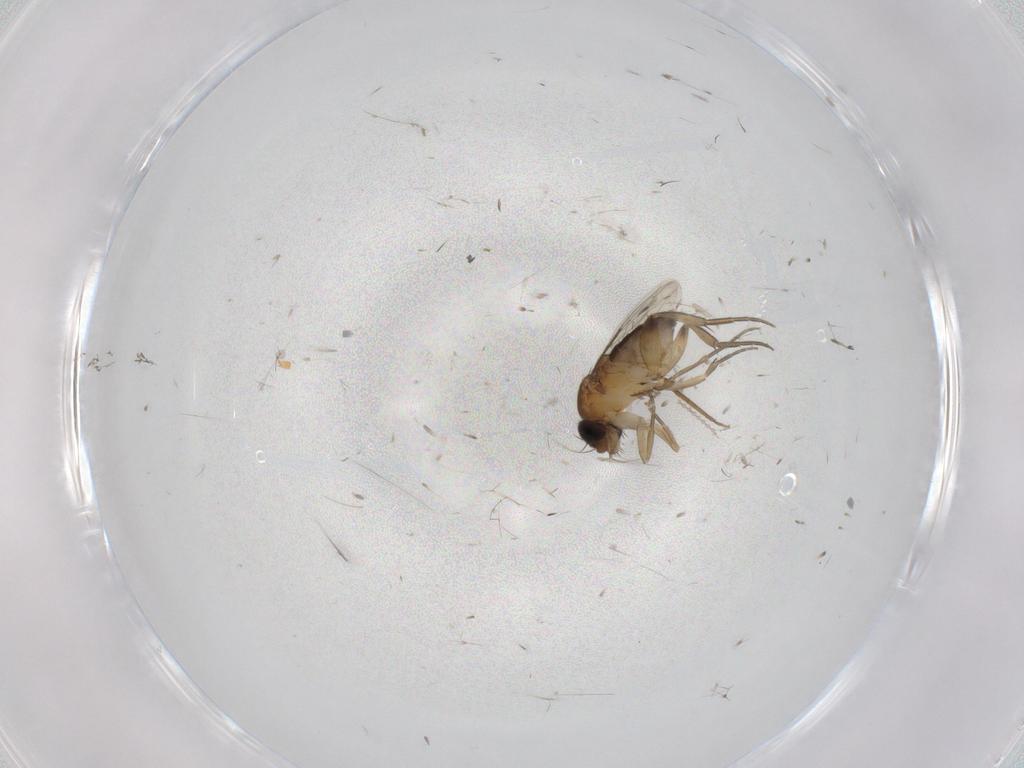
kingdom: Animalia
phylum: Arthropoda
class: Insecta
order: Diptera
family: Phoridae
